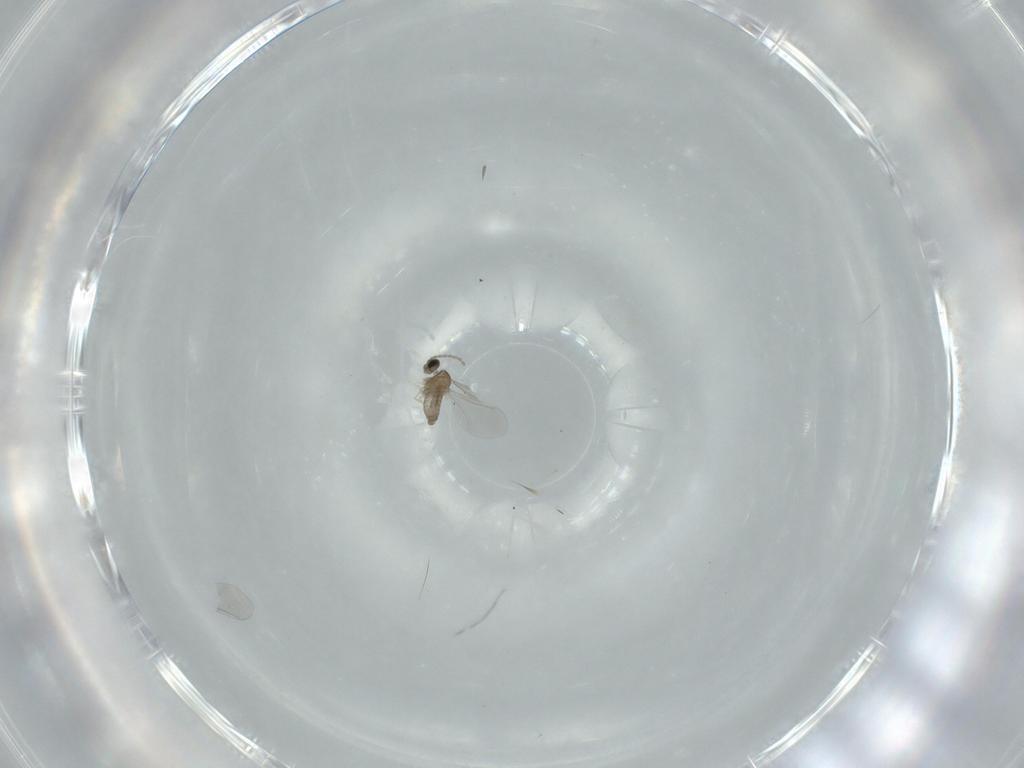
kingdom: Animalia
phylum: Arthropoda
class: Insecta
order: Diptera
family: Cecidomyiidae
